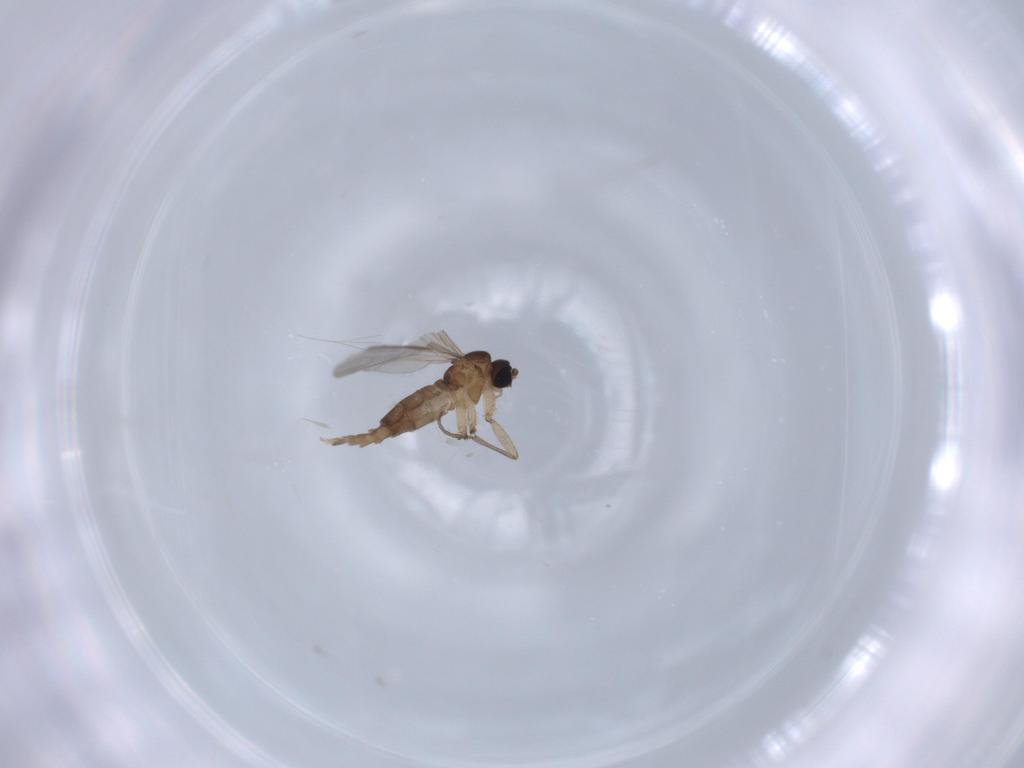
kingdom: Animalia
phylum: Arthropoda
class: Insecta
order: Diptera
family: Sciaridae
